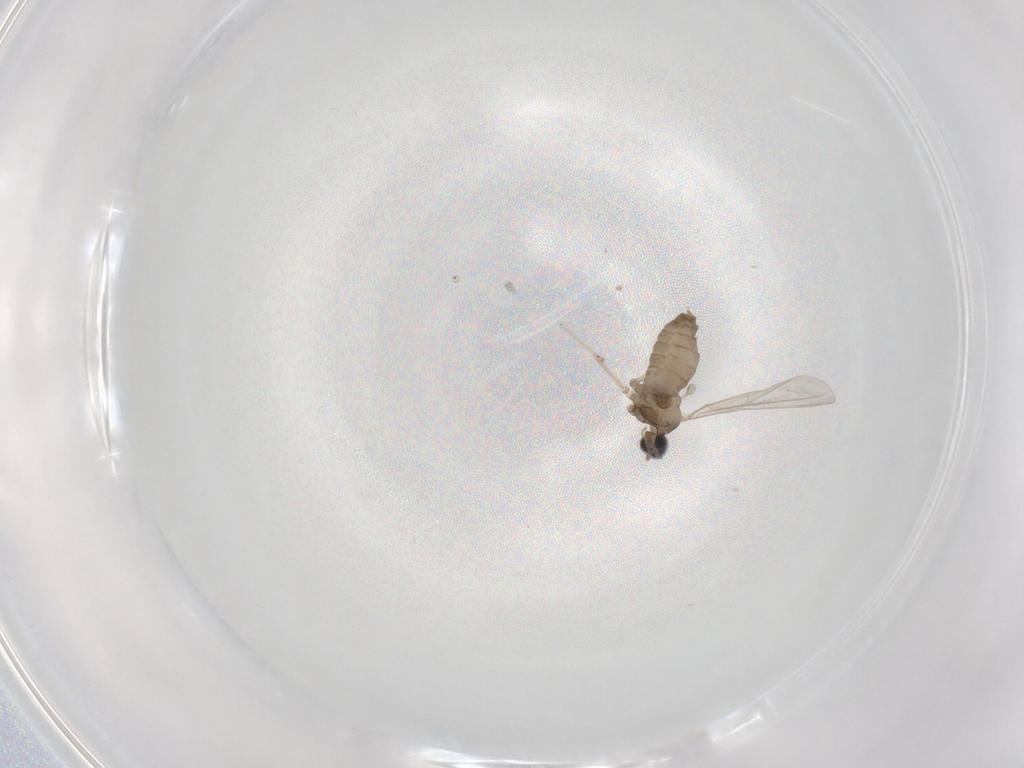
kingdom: Animalia
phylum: Arthropoda
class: Insecta
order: Diptera
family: Cecidomyiidae
